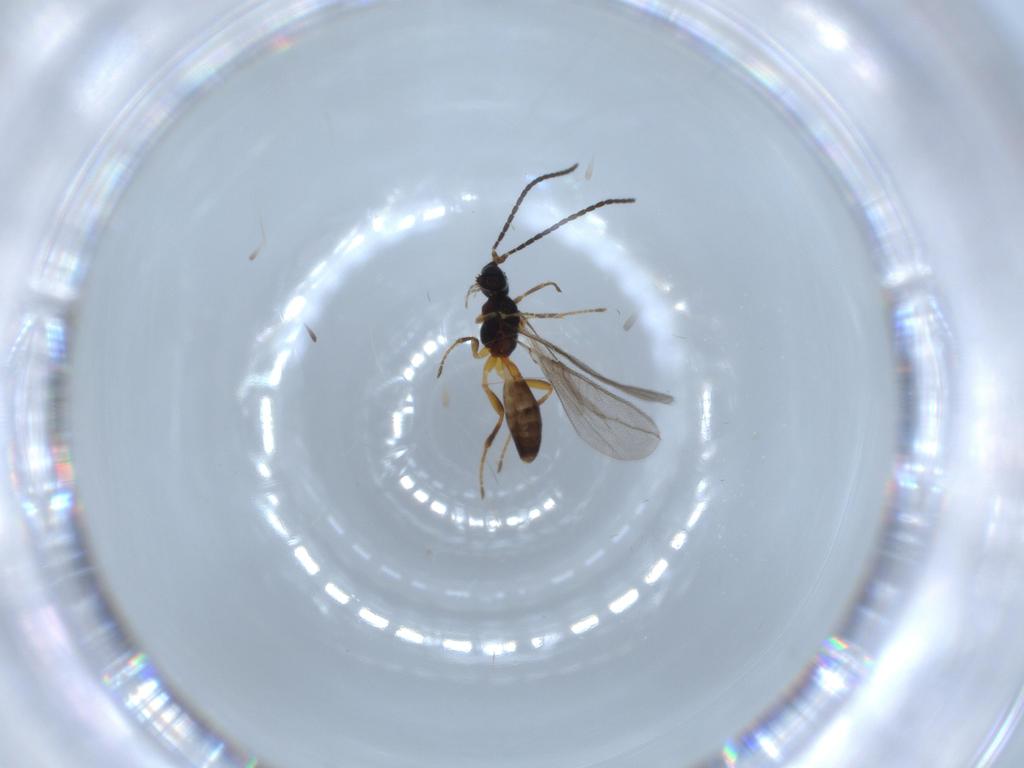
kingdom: Animalia
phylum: Arthropoda
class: Insecta
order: Hymenoptera
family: Braconidae
